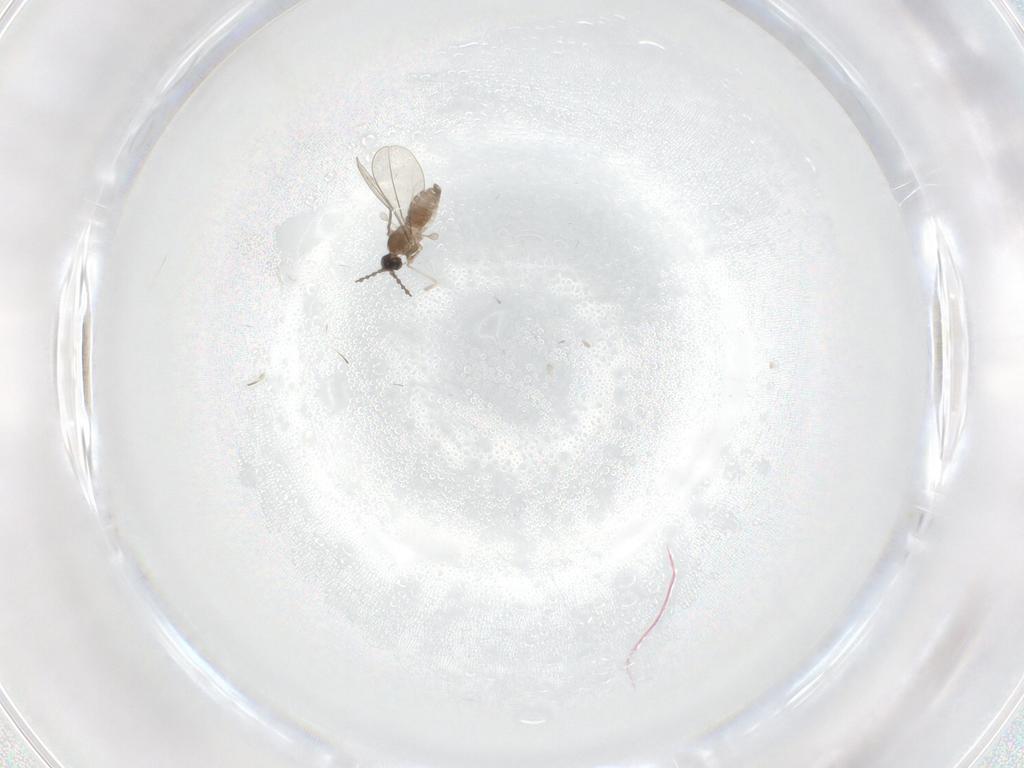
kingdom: Animalia
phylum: Arthropoda
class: Insecta
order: Diptera
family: Cecidomyiidae
